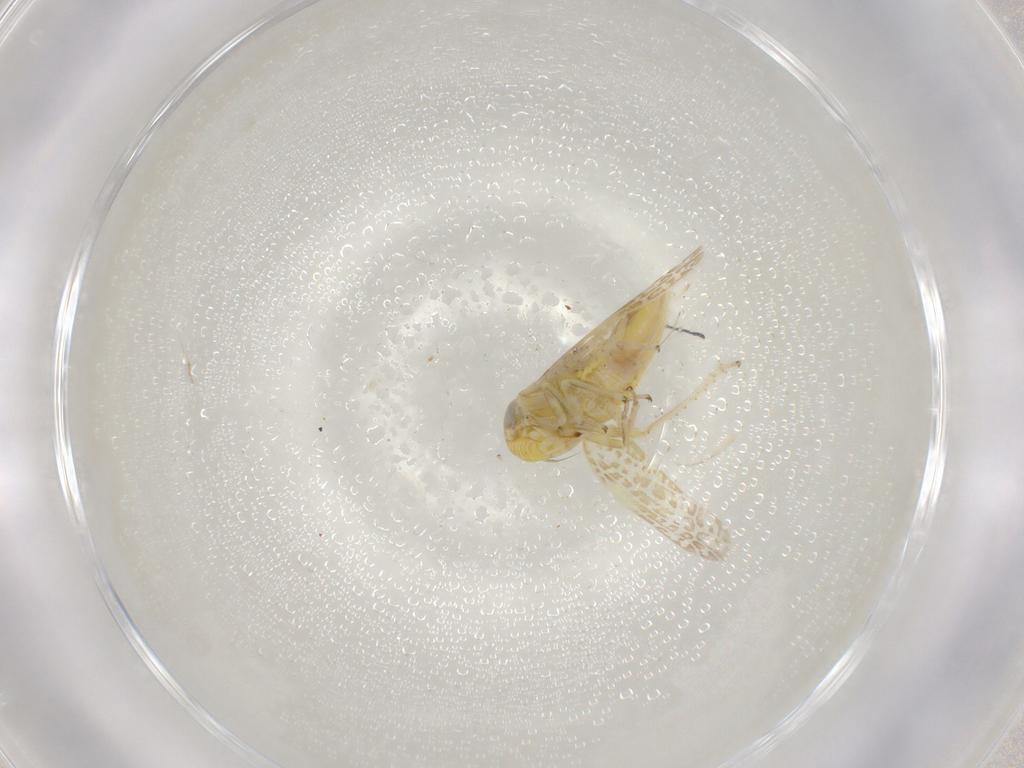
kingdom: Animalia
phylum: Arthropoda
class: Insecta
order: Hemiptera
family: Cicadellidae
